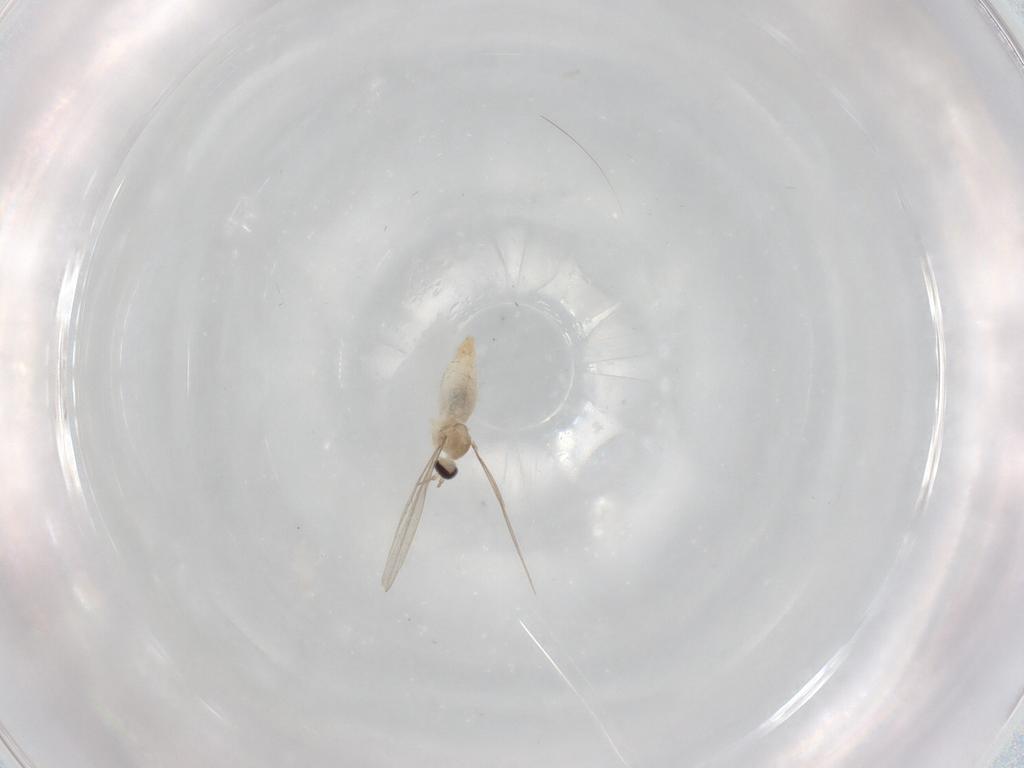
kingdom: Animalia
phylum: Arthropoda
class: Insecta
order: Diptera
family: Cecidomyiidae
